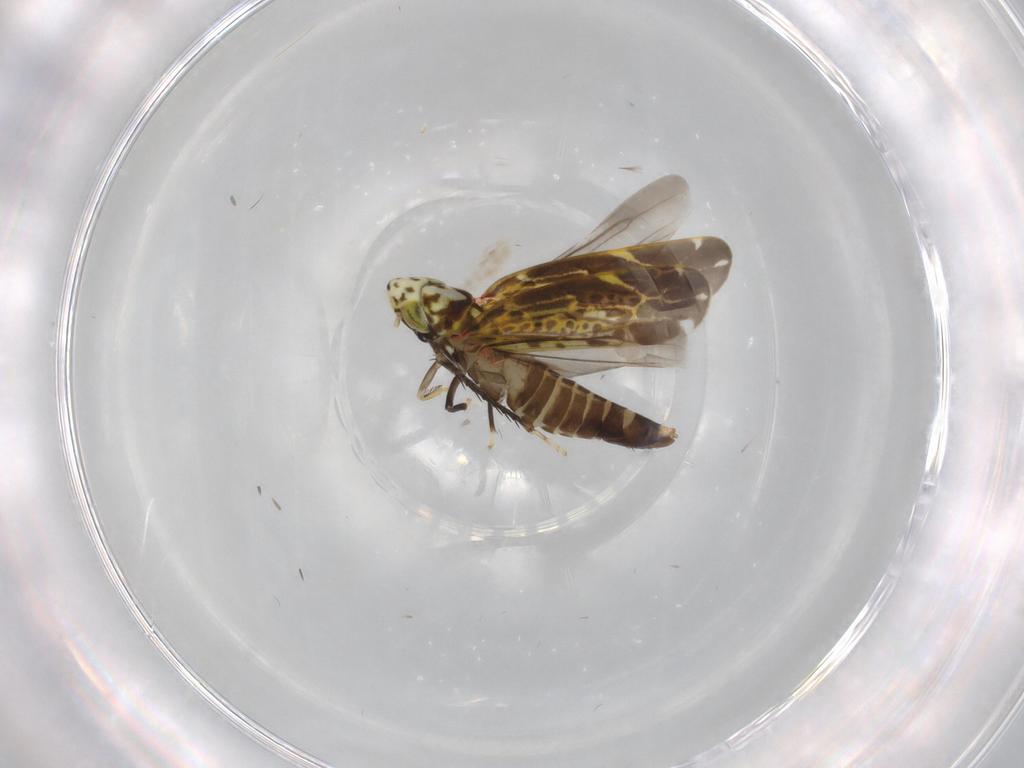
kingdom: Animalia
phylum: Arthropoda
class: Insecta
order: Hemiptera
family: Cicadellidae
